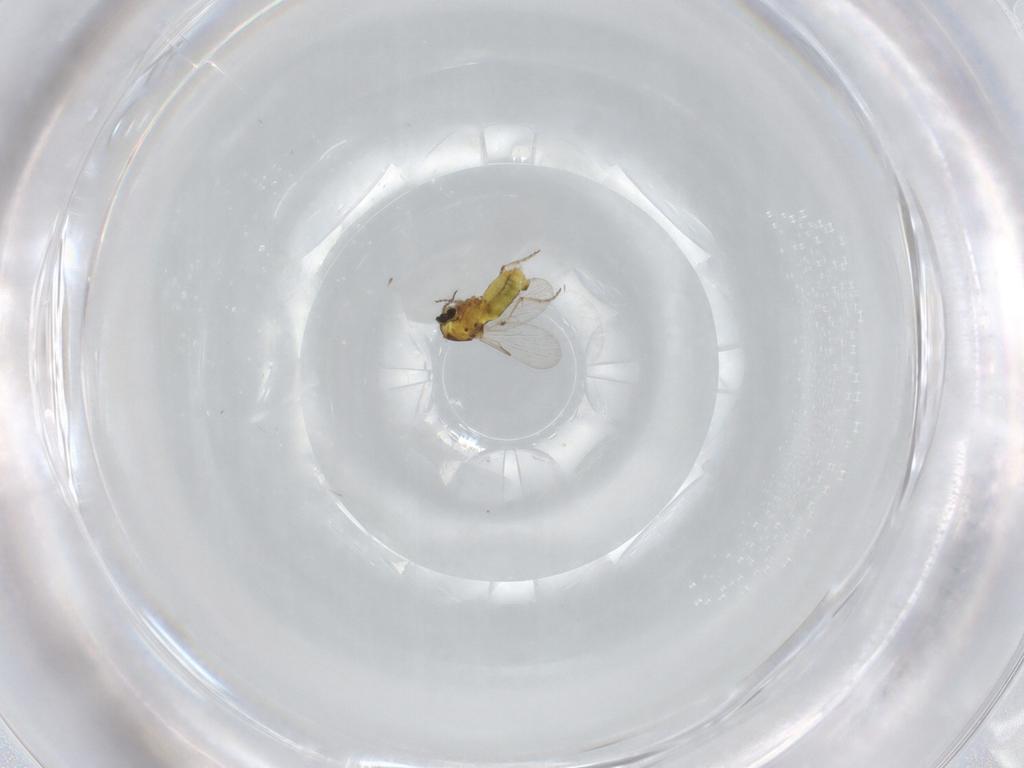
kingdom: Animalia
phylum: Arthropoda
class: Insecta
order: Diptera
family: Ceratopogonidae
